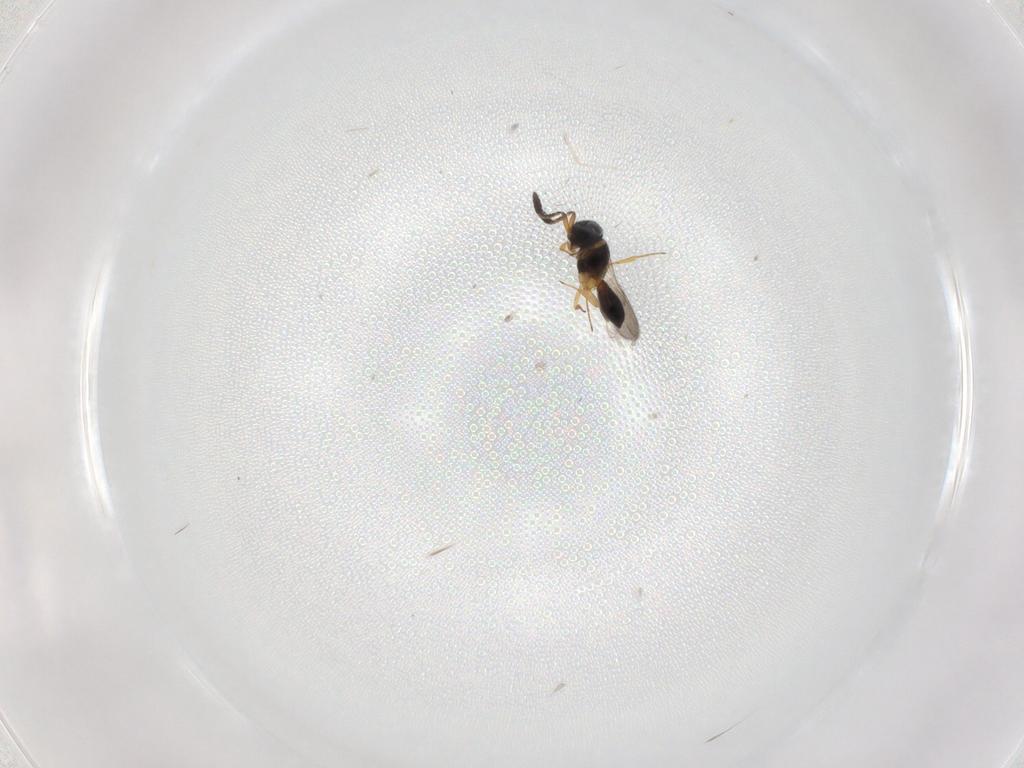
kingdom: Animalia
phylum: Arthropoda
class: Insecta
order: Hymenoptera
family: Scelionidae
